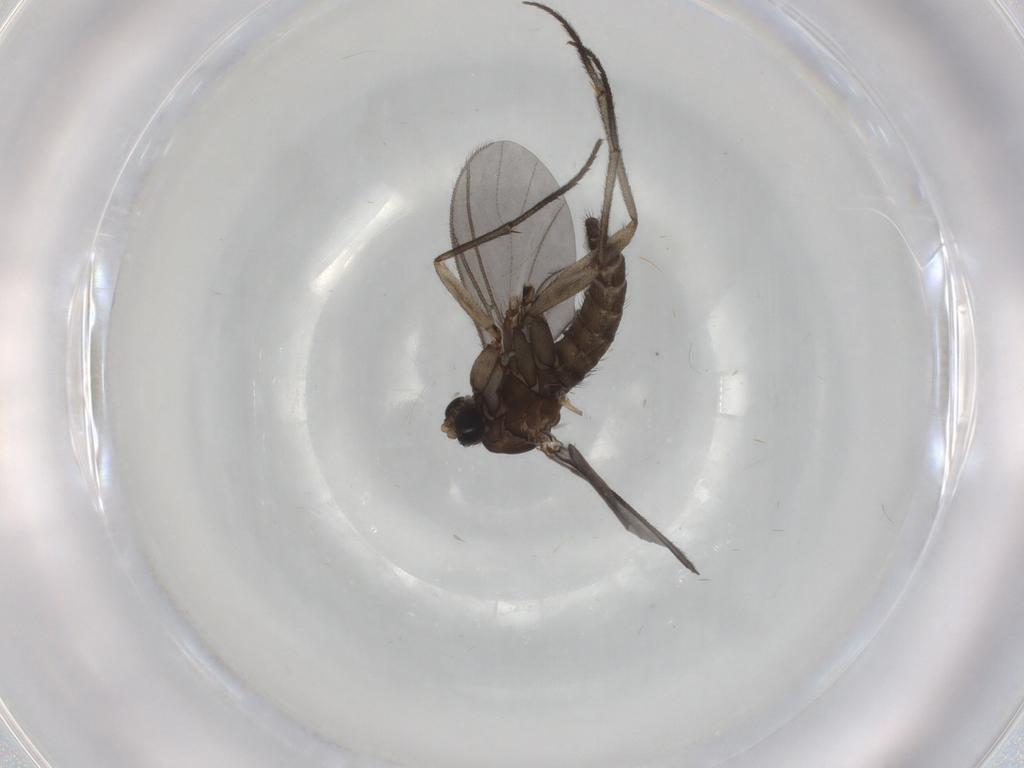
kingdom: Animalia
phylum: Arthropoda
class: Insecta
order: Diptera
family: Sciaridae
